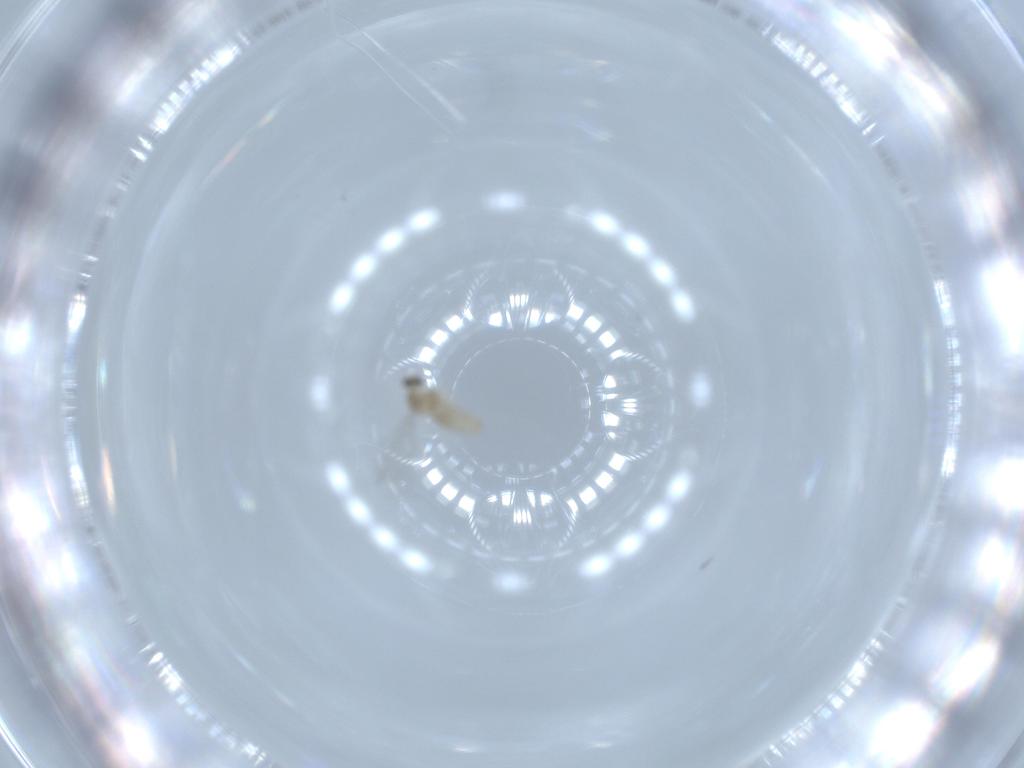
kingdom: Animalia
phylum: Arthropoda
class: Insecta
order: Diptera
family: Cecidomyiidae
